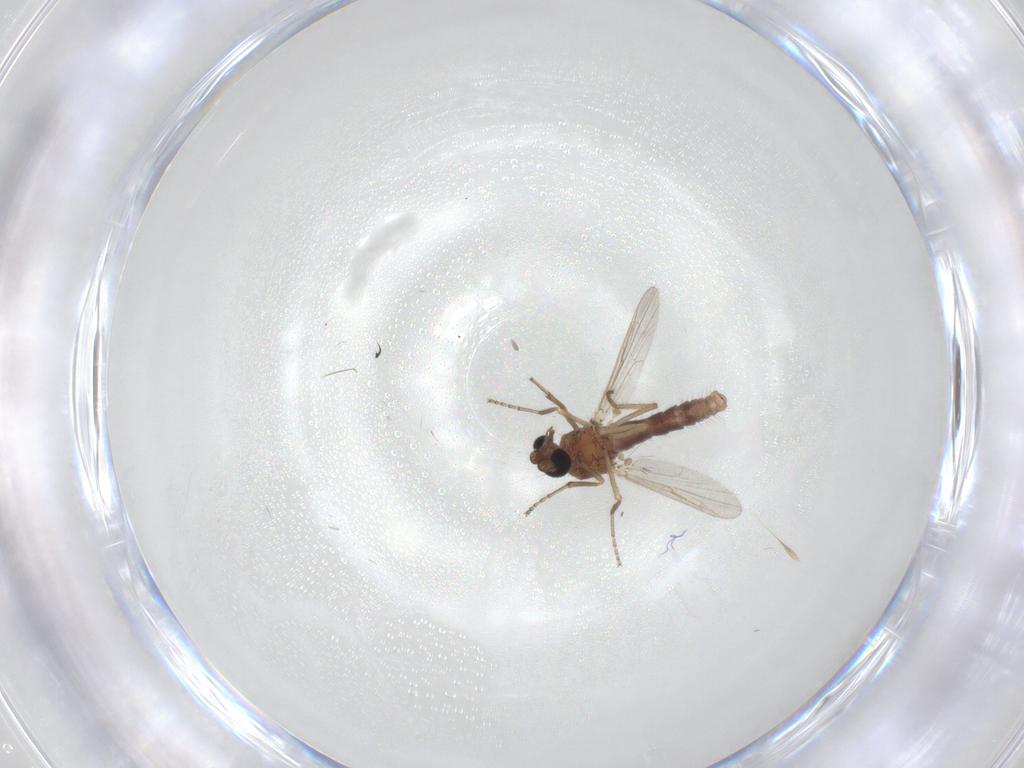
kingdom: Animalia
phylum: Arthropoda
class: Insecta
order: Diptera
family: Ceratopogonidae
